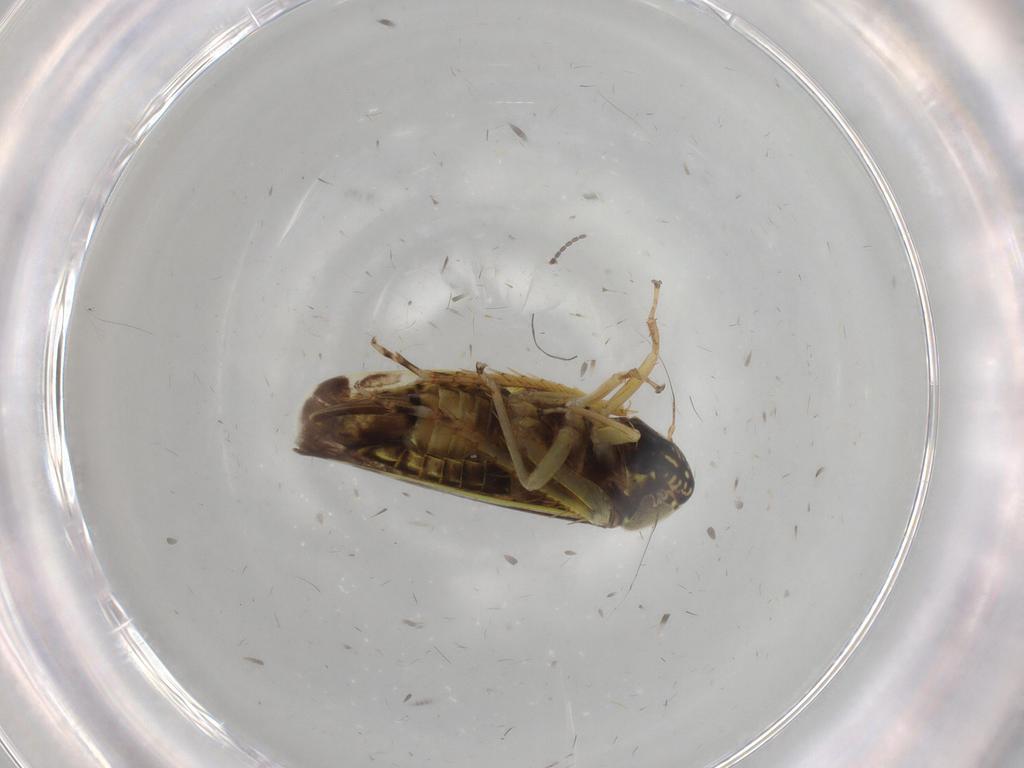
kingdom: Animalia
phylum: Arthropoda
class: Insecta
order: Hemiptera
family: Cicadellidae
